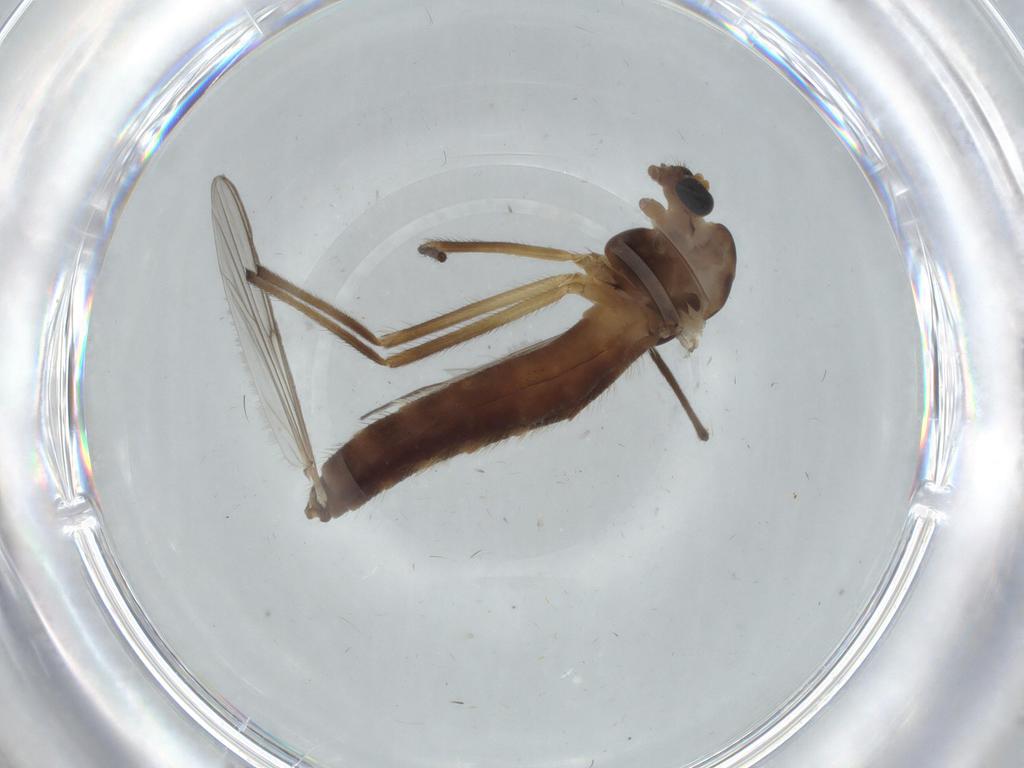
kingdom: Animalia
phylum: Arthropoda
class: Insecta
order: Diptera
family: Chironomidae
